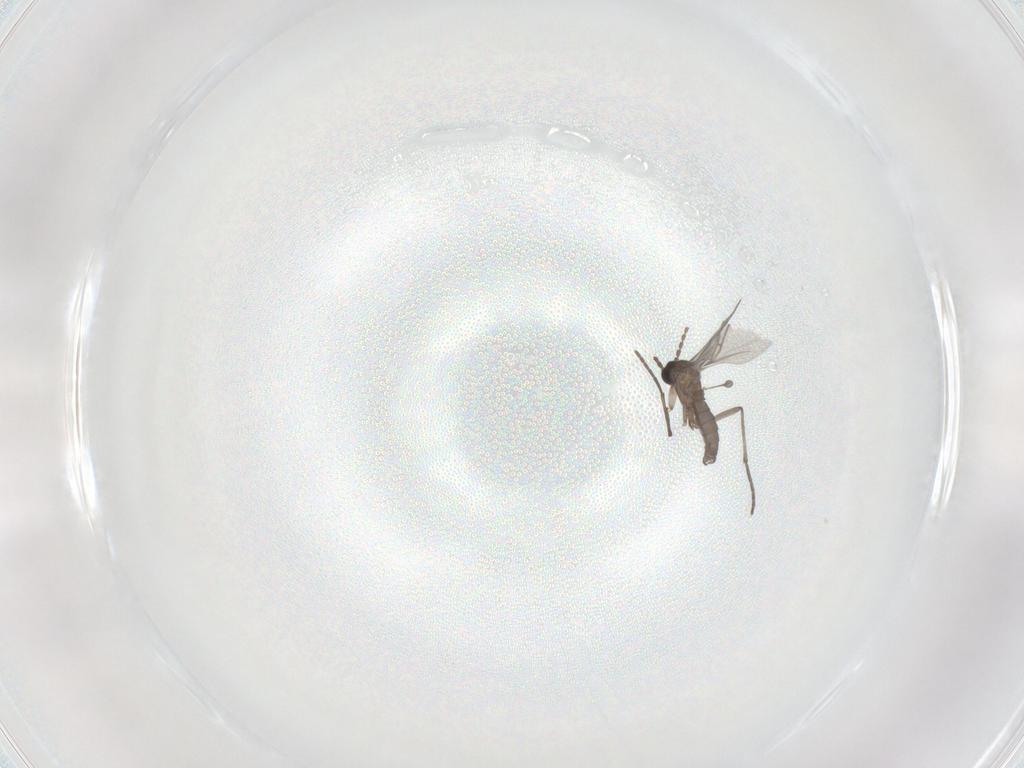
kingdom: Animalia
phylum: Arthropoda
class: Insecta
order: Diptera
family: Sciaridae
